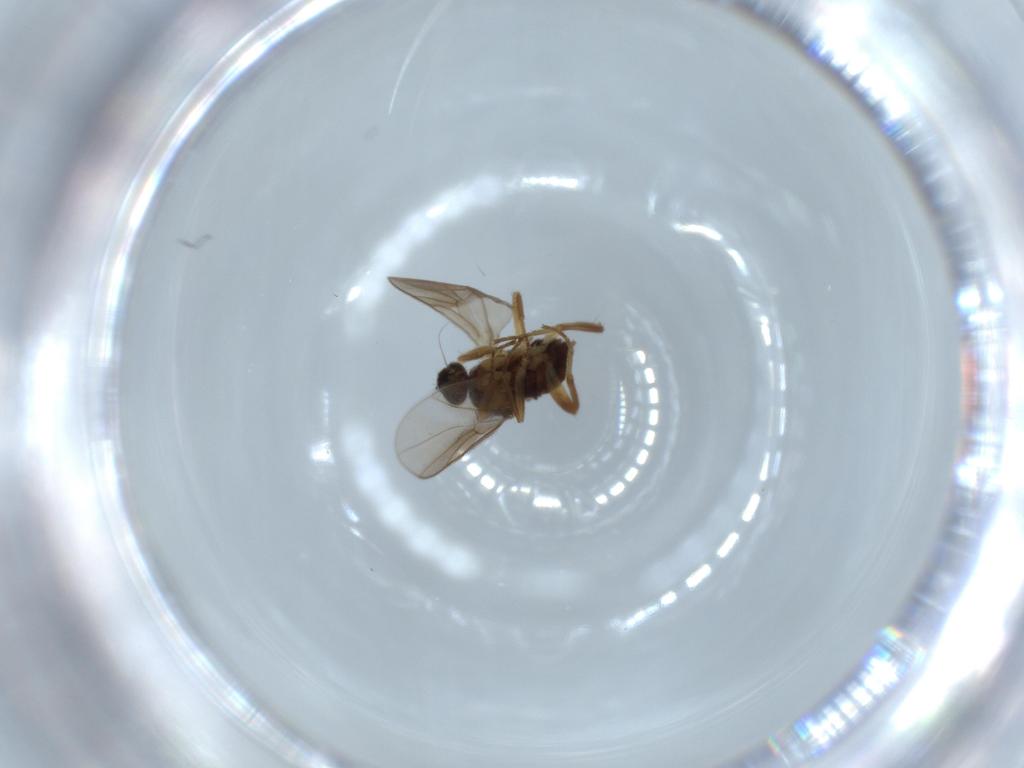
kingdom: Animalia
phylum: Arthropoda
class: Insecta
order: Diptera
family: Hybotidae
